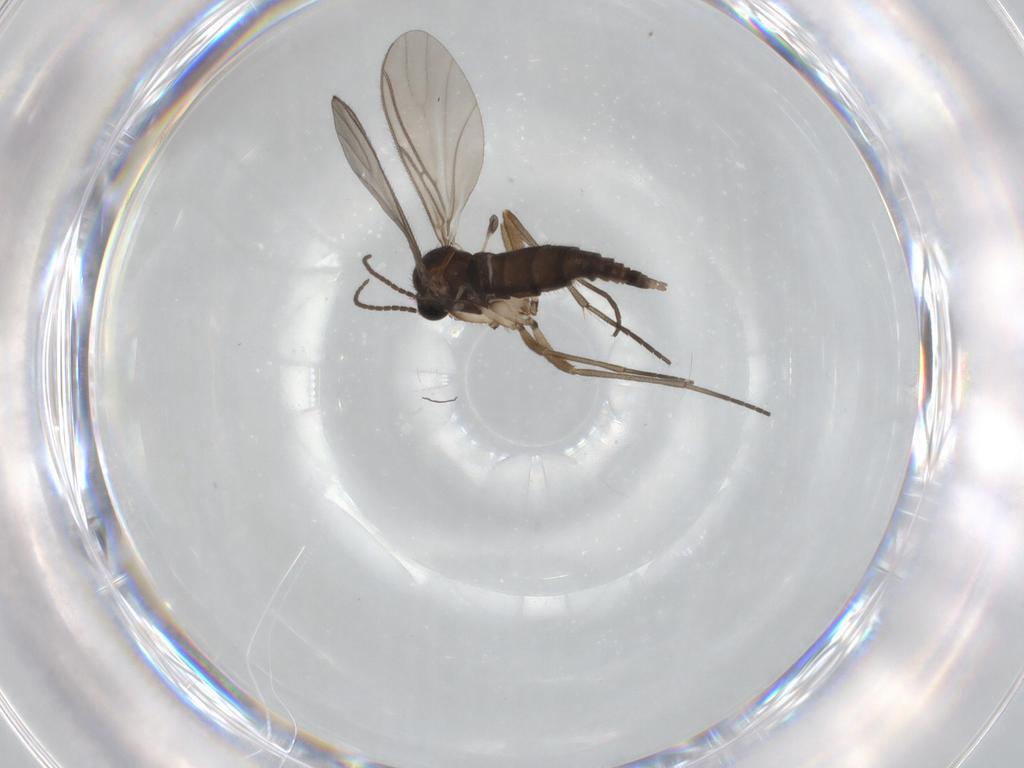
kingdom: Animalia
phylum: Arthropoda
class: Insecta
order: Diptera
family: Sciaridae
